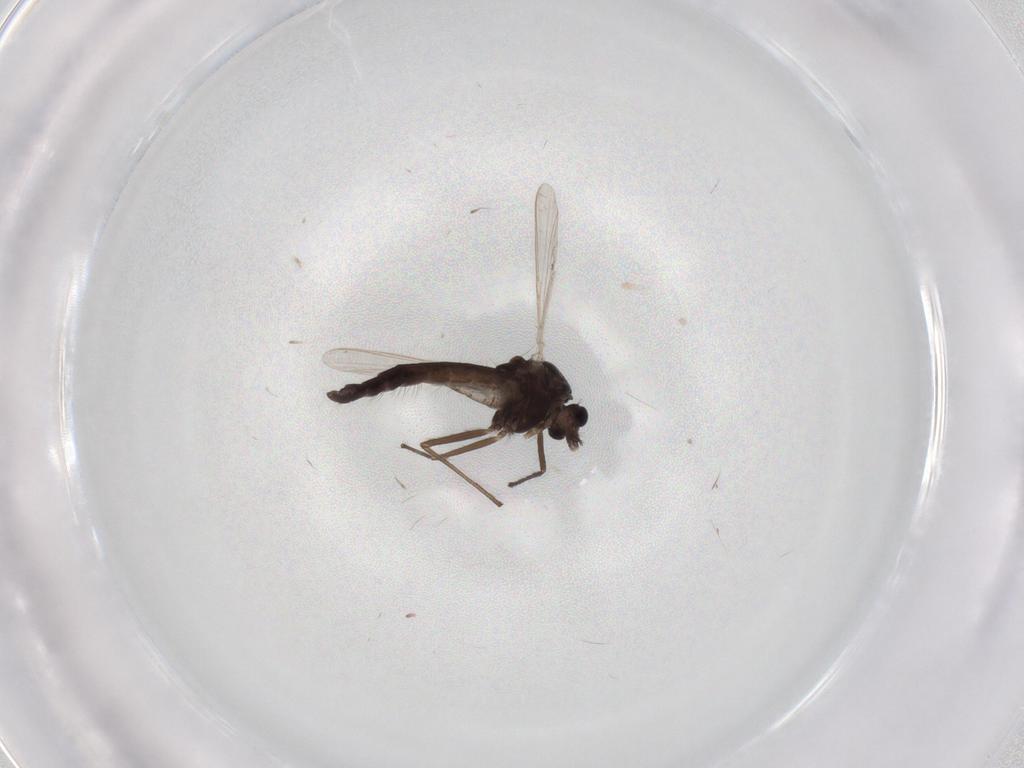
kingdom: Animalia
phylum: Arthropoda
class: Insecta
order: Diptera
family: Chironomidae
